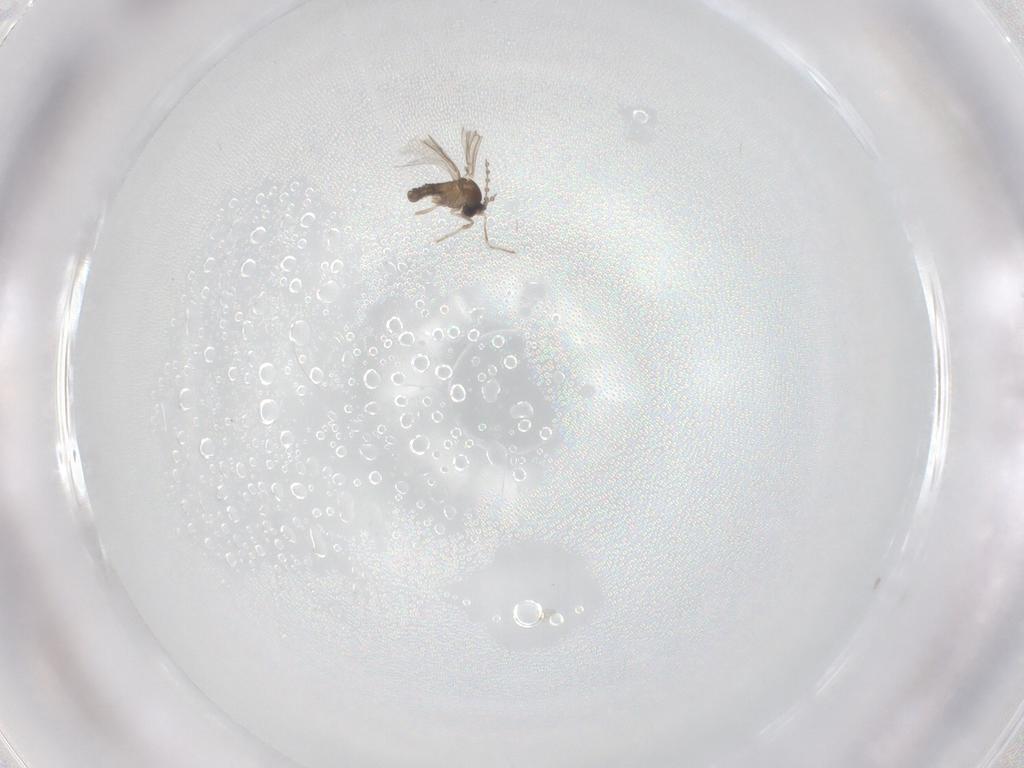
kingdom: Animalia
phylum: Arthropoda
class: Insecta
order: Diptera
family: Cecidomyiidae
